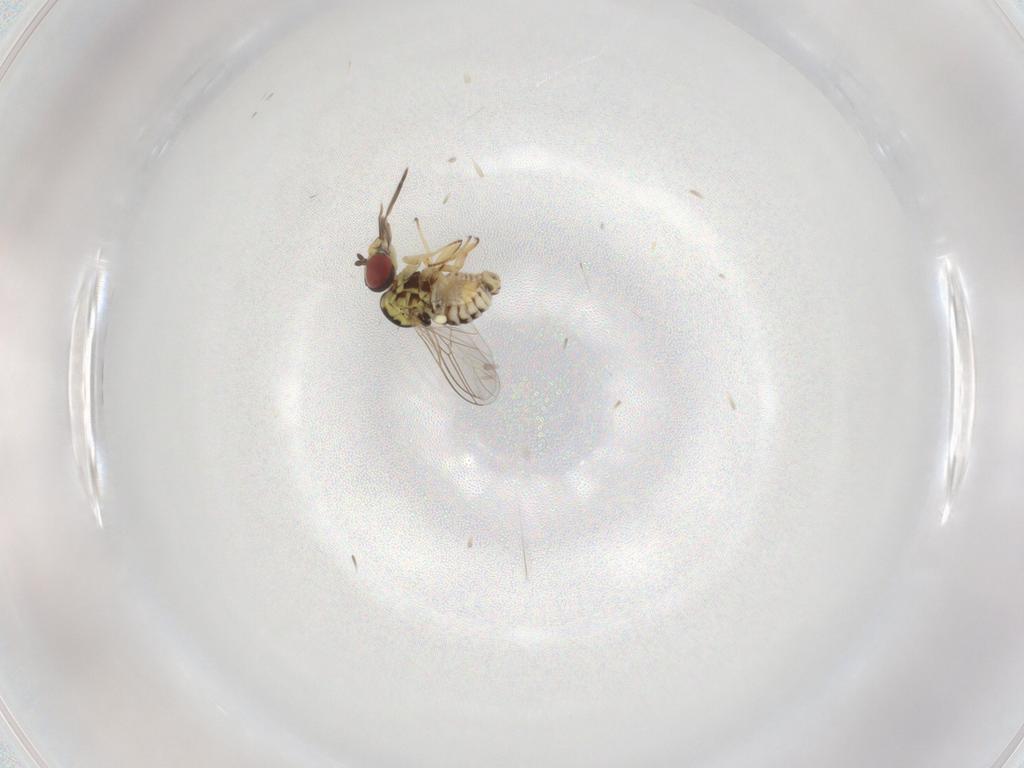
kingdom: Animalia
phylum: Arthropoda
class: Insecta
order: Diptera
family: Bombyliidae
